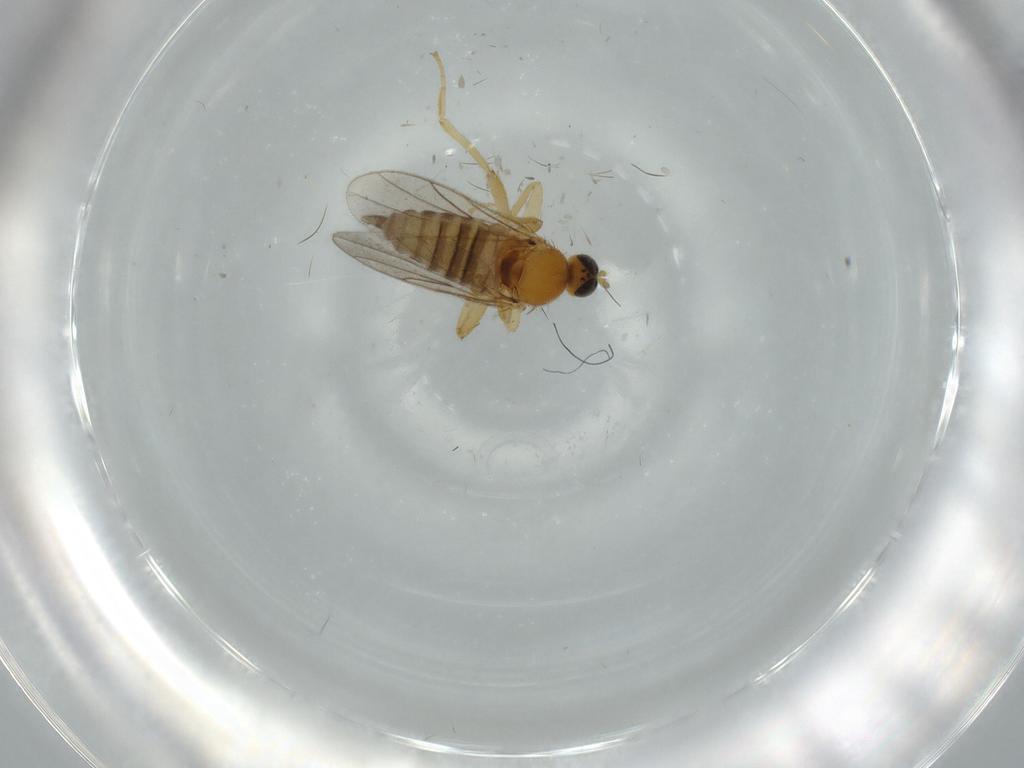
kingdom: Animalia
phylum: Arthropoda
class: Insecta
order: Diptera
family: Hybotidae
